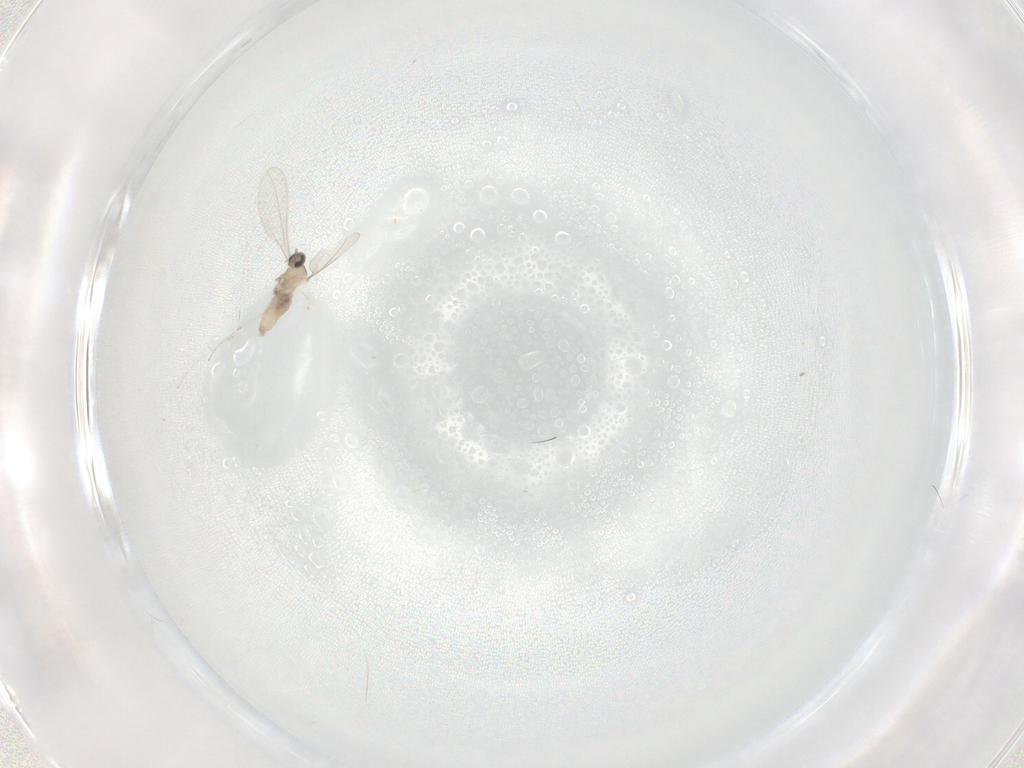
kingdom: Animalia
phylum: Arthropoda
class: Insecta
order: Diptera
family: Cecidomyiidae
